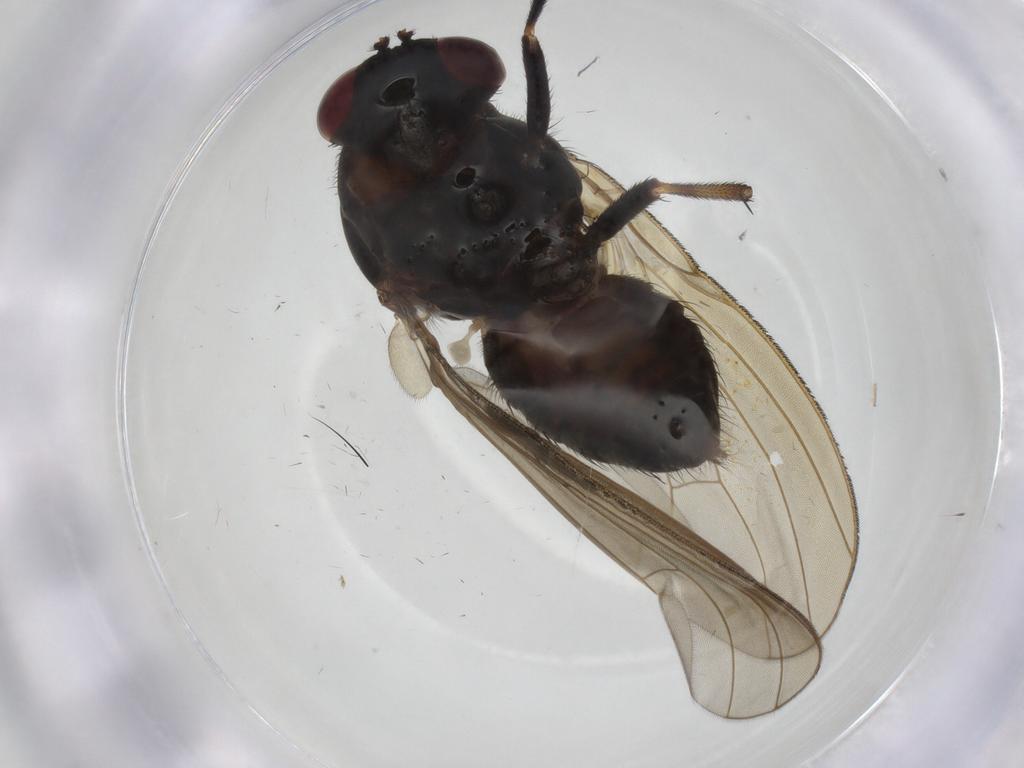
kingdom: Animalia
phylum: Arthropoda
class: Insecta
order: Diptera
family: Lauxaniidae
